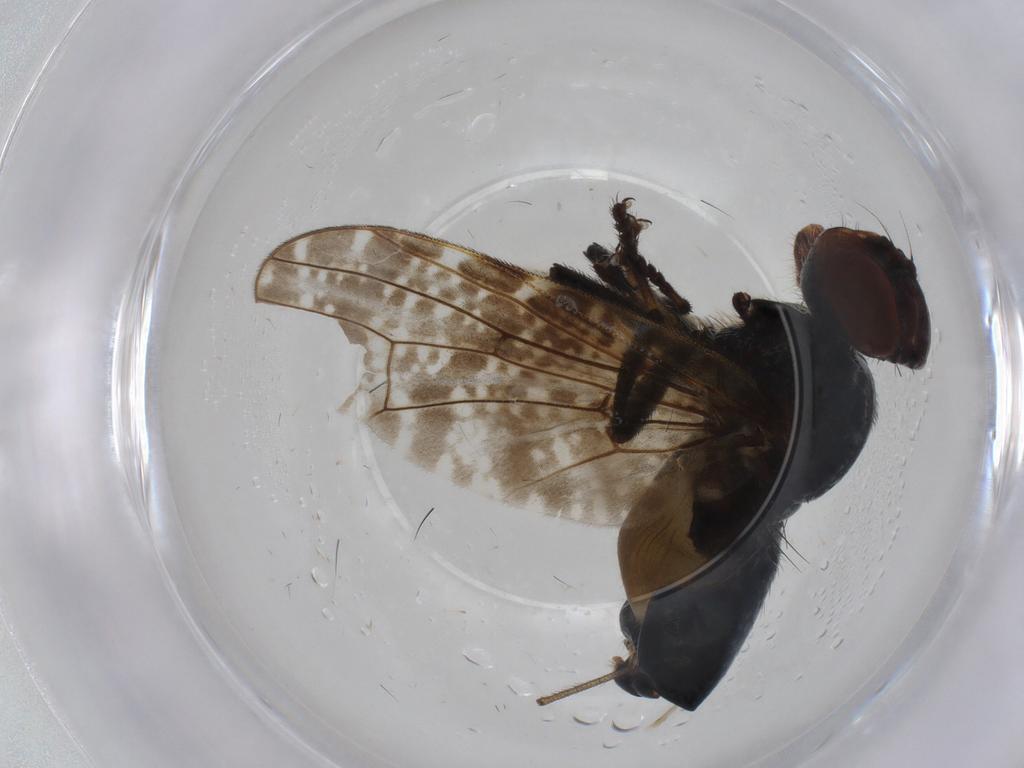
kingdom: Animalia
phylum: Arthropoda
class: Insecta
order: Diptera
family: Platystomatidae
